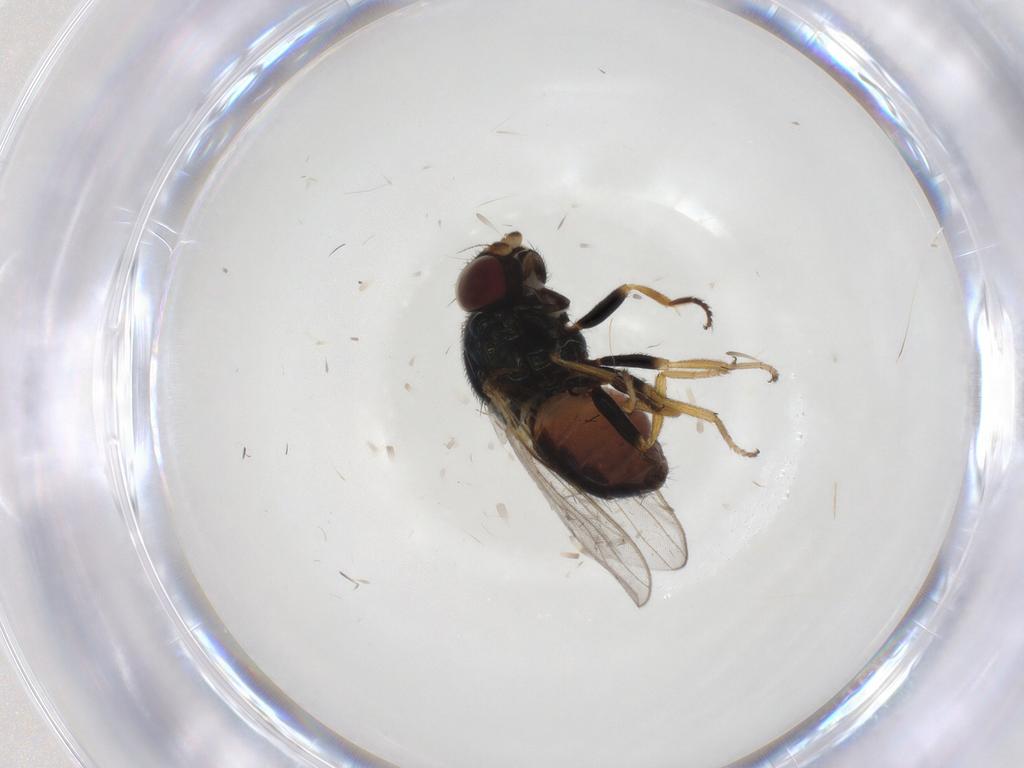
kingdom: Animalia
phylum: Arthropoda
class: Insecta
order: Diptera
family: Chloropidae
